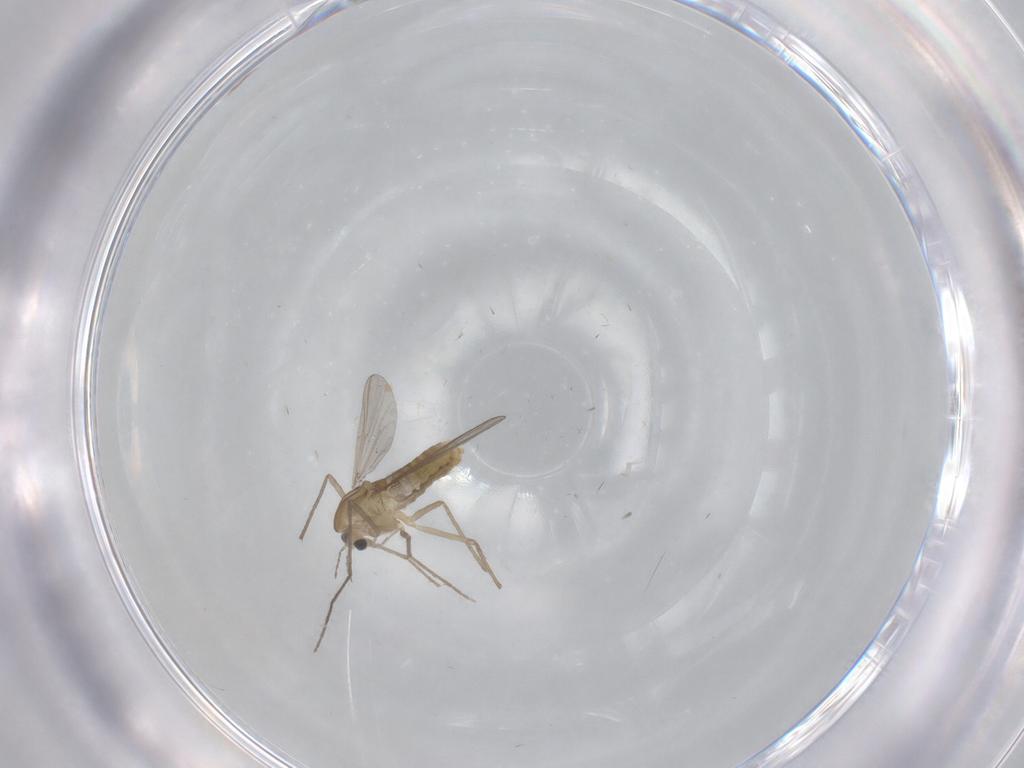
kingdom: Animalia
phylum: Arthropoda
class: Insecta
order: Diptera
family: Chironomidae
